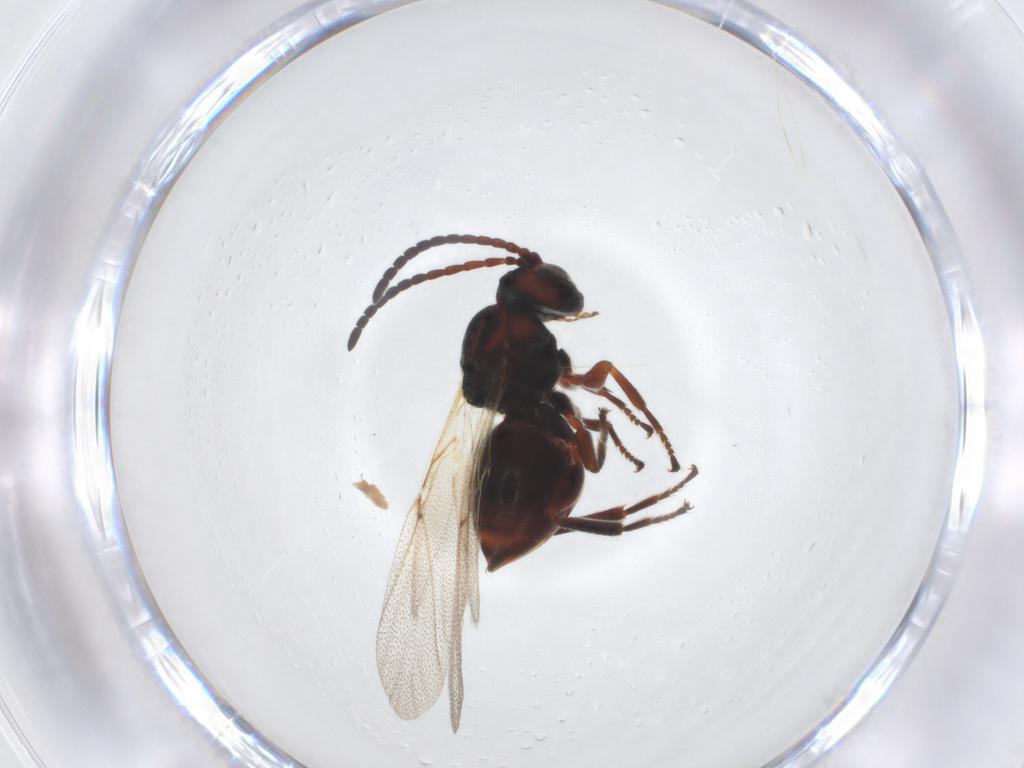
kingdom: Animalia
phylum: Arthropoda
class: Insecta
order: Hymenoptera
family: Cynipidae
